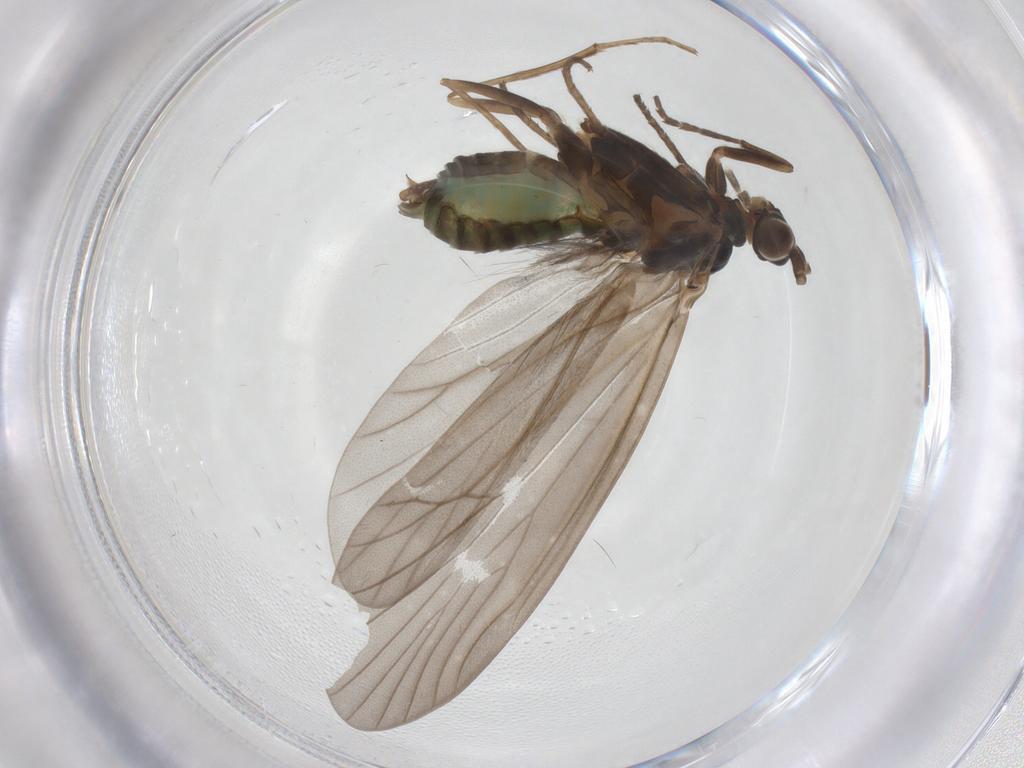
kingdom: Animalia
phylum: Arthropoda
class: Insecta
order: Trichoptera
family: Brachycentridae
